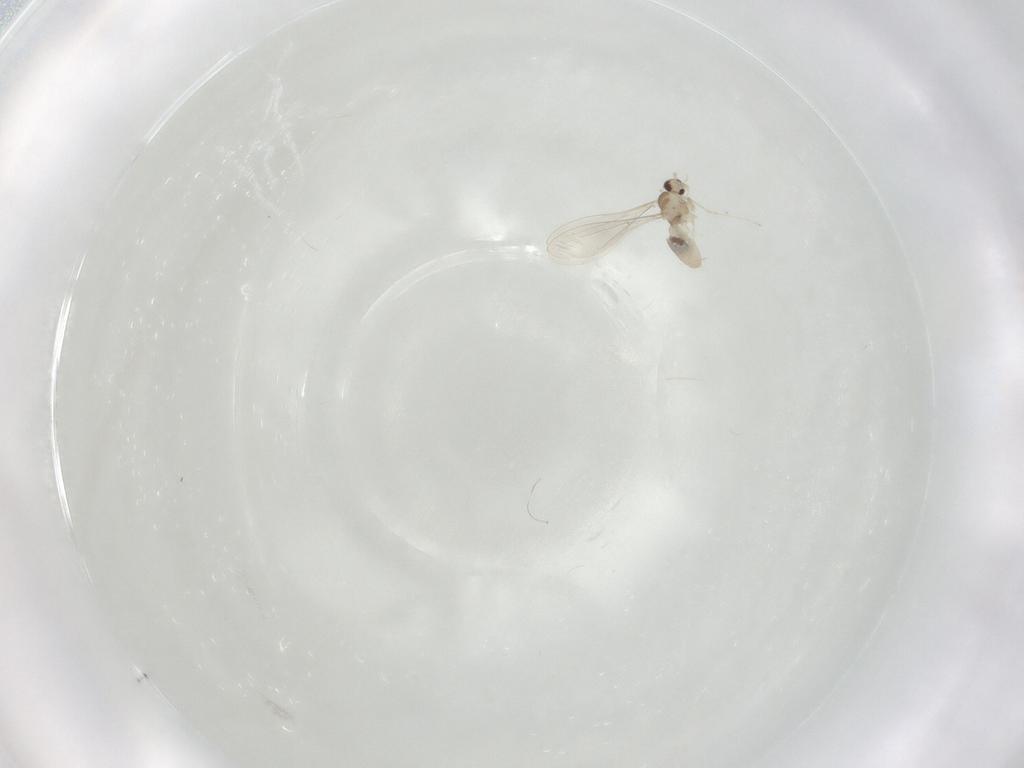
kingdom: Animalia
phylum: Arthropoda
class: Insecta
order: Diptera
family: Cecidomyiidae
